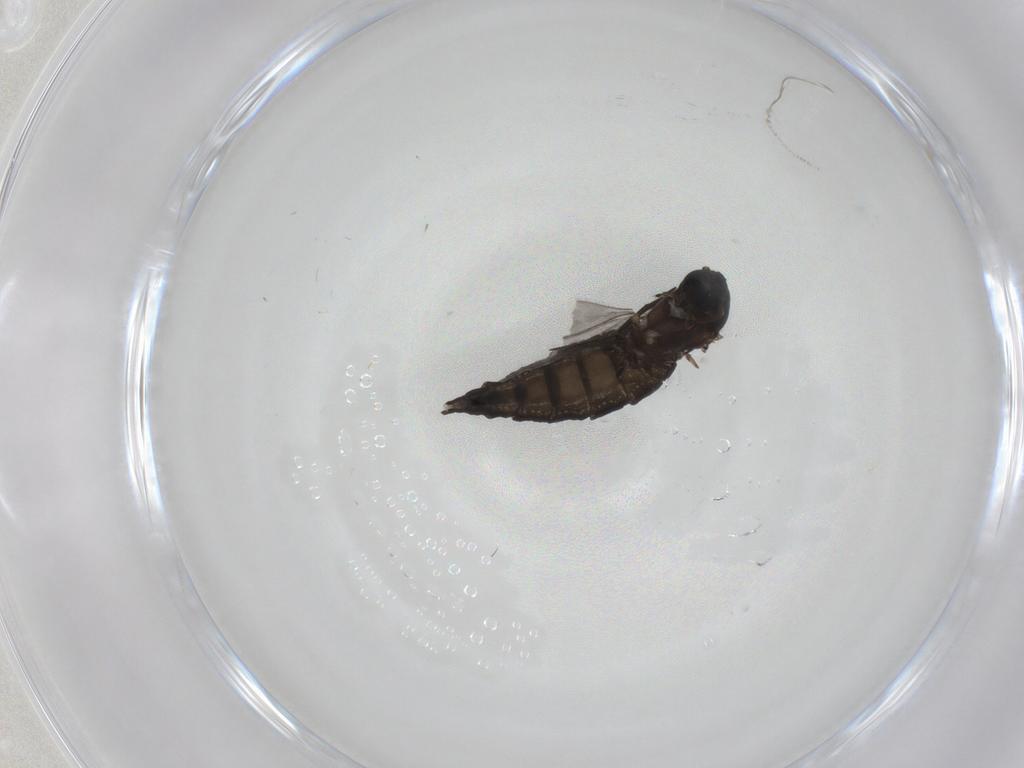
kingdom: Animalia
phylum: Arthropoda
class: Insecta
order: Diptera
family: Sciaridae
